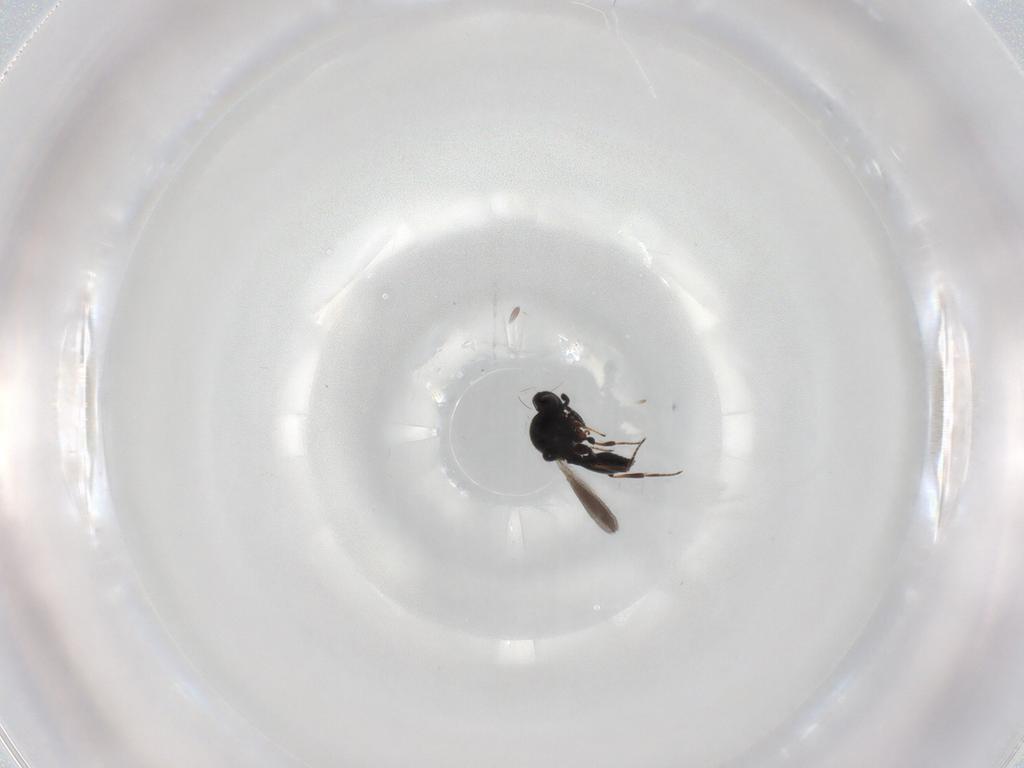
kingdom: Animalia
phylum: Arthropoda
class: Insecta
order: Hymenoptera
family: Platygastridae
